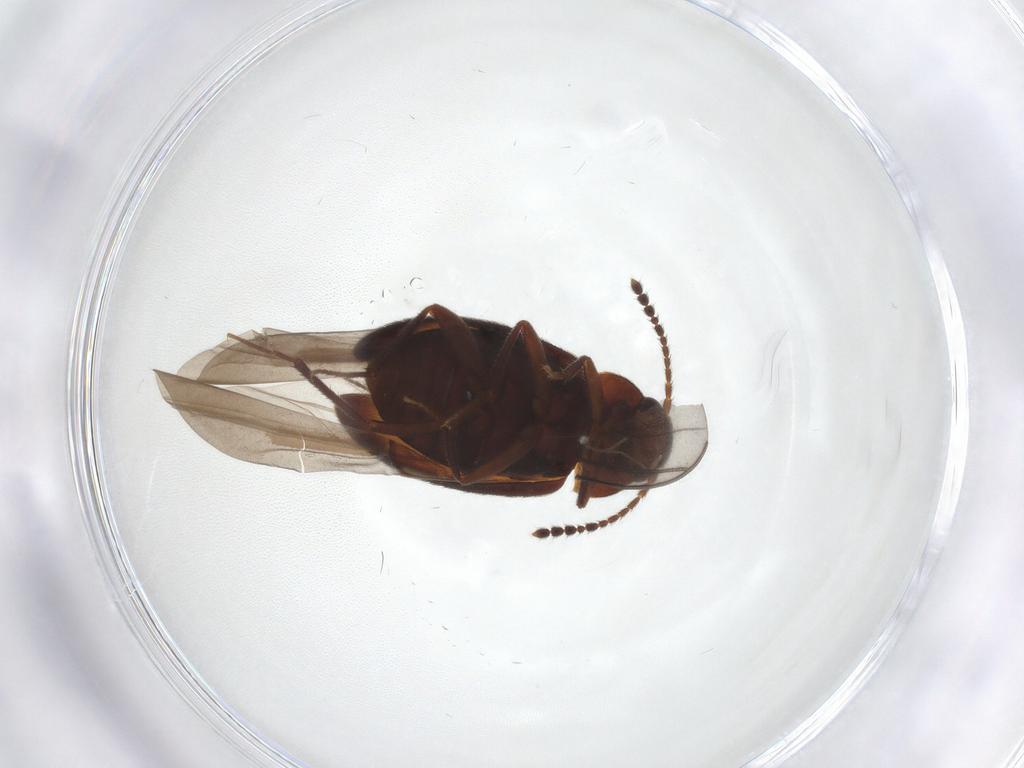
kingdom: Animalia
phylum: Arthropoda
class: Insecta
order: Coleoptera
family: Leiodidae
